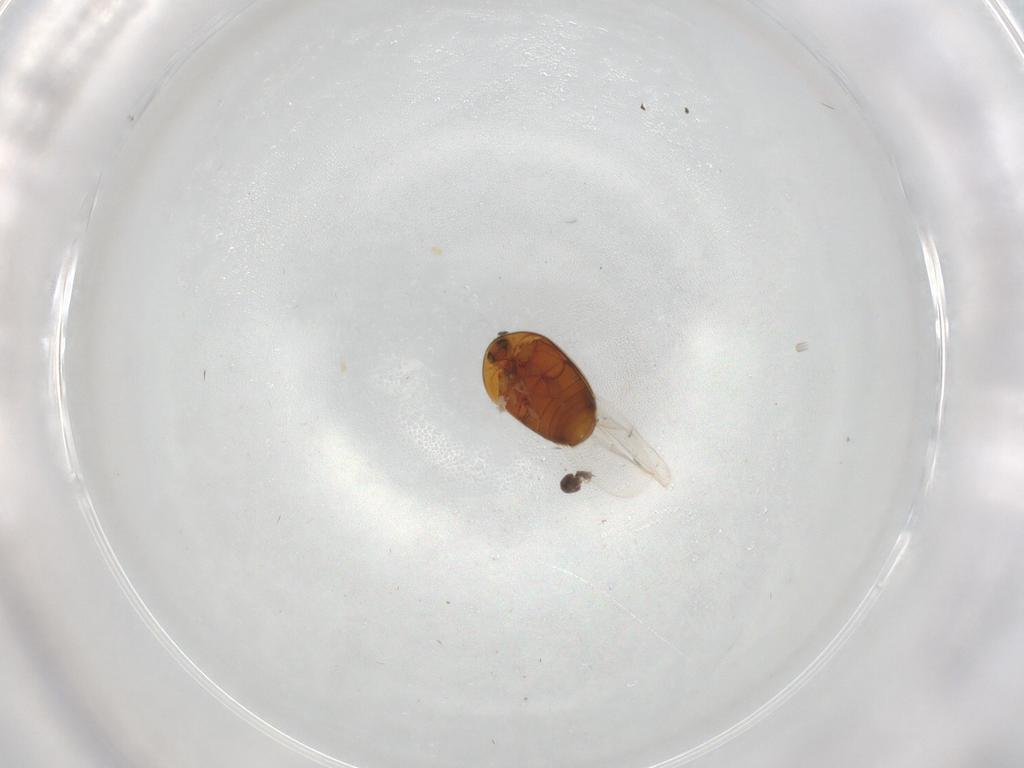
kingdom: Animalia
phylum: Arthropoda
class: Insecta
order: Coleoptera
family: Corylophidae
